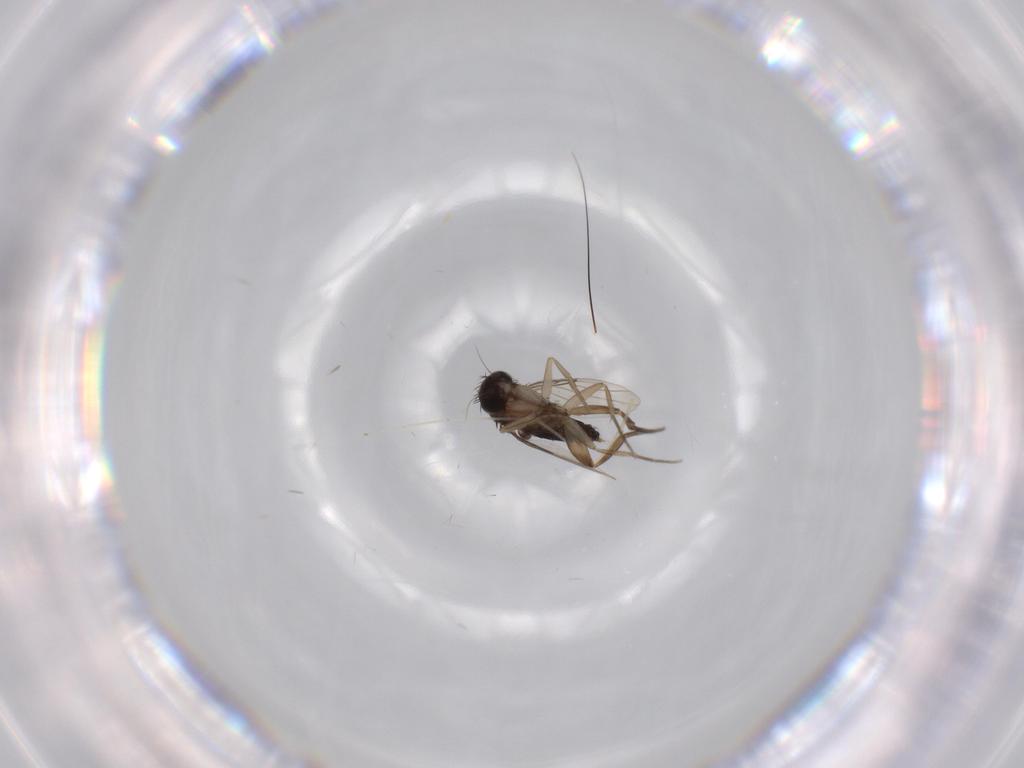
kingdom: Animalia
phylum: Arthropoda
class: Insecta
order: Diptera
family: Cecidomyiidae
